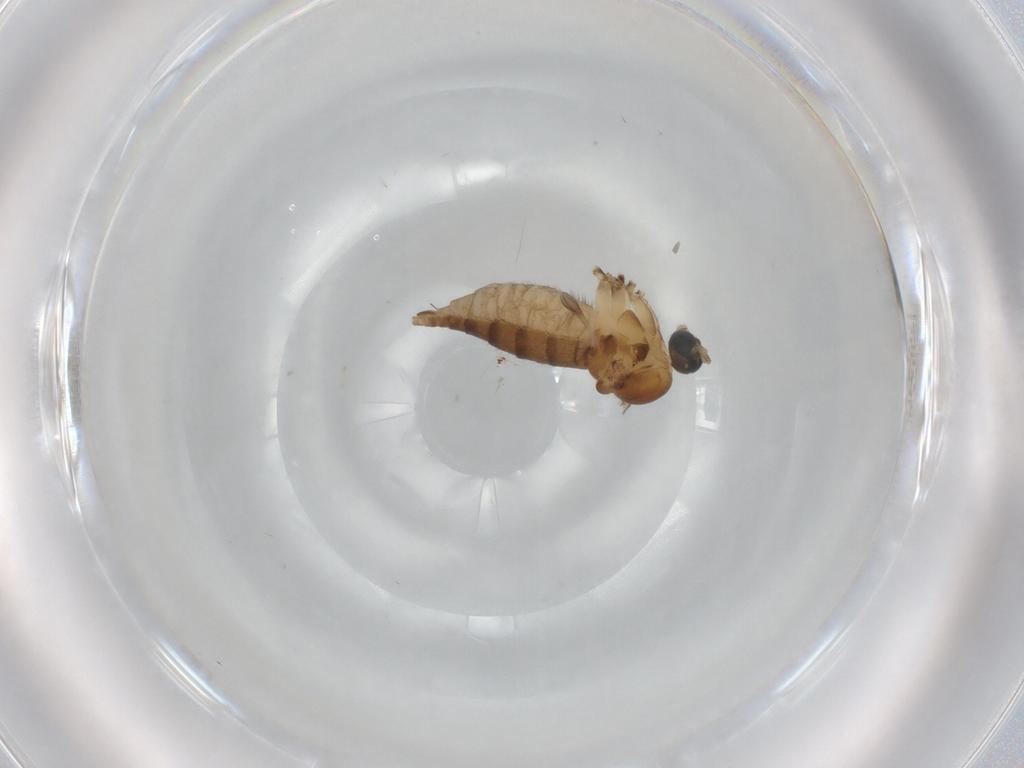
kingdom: Animalia
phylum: Arthropoda
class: Insecta
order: Diptera
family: Sciaridae
